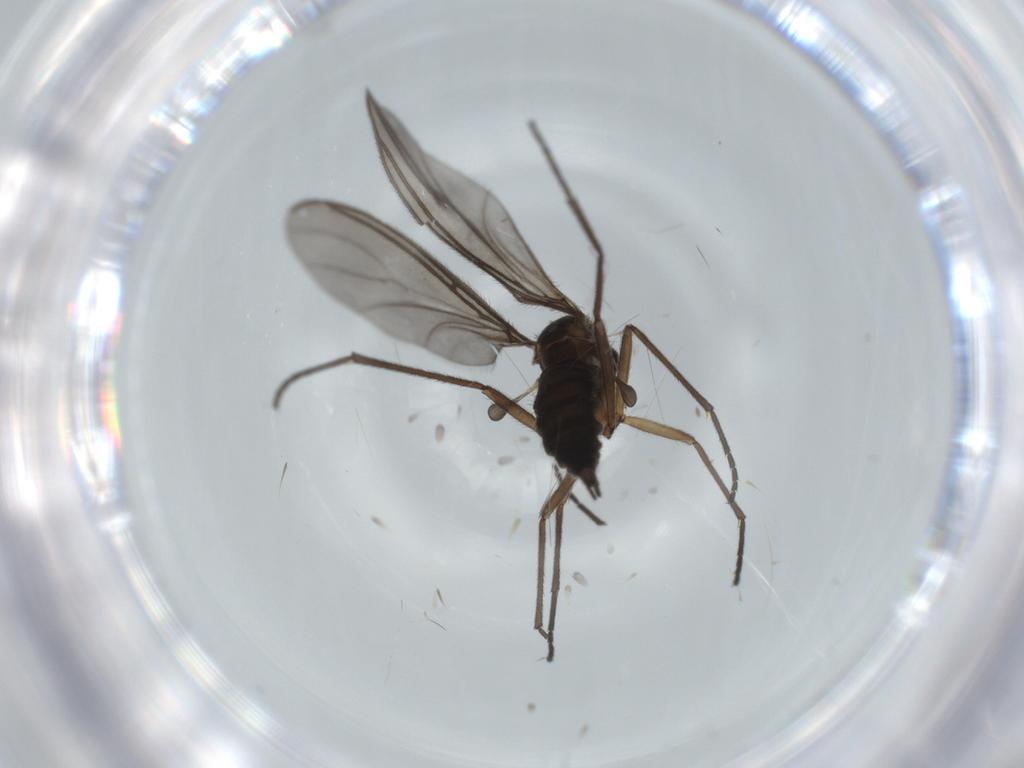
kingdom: Animalia
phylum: Arthropoda
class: Insecta
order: Diptera
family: Sciaridae
